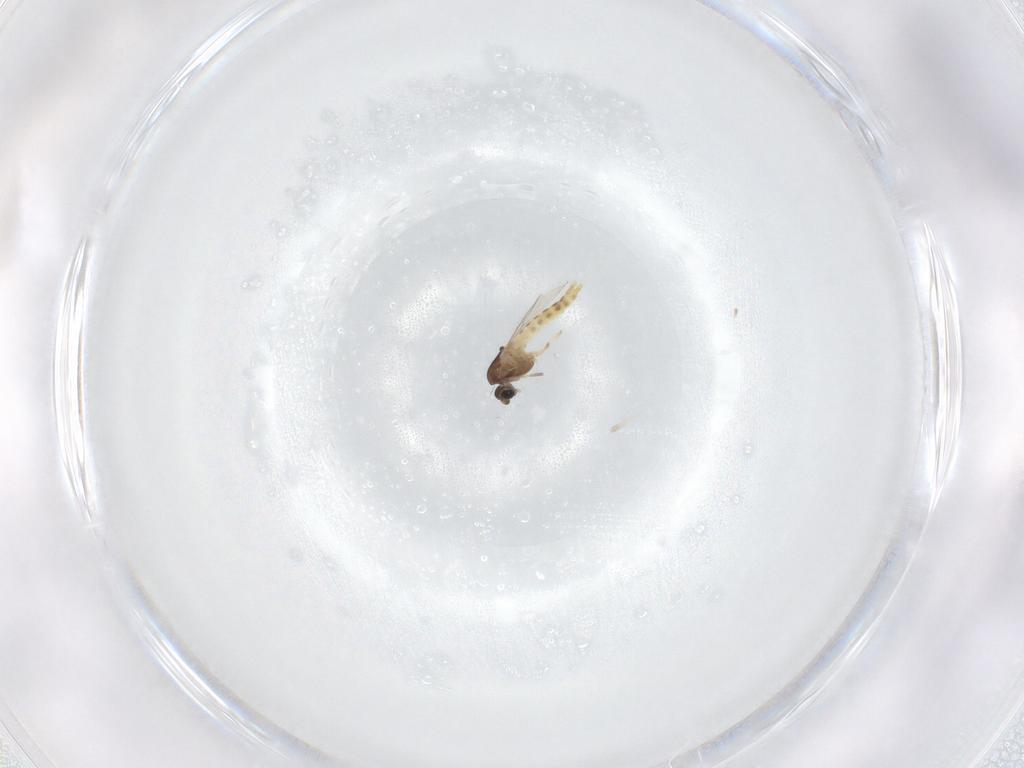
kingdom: Animalia
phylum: Arthropoda
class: Insecta
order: Diptera
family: Chironomidae
